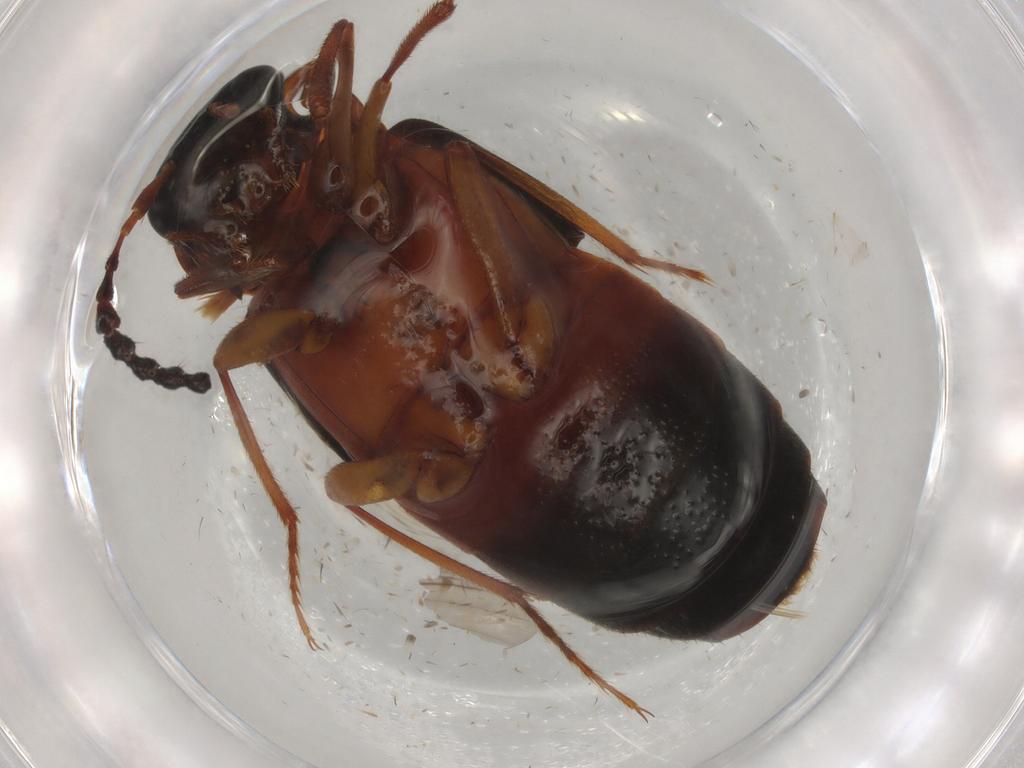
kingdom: Animalia
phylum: Arthropoda
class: Insecta
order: Coleoptera
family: Staphylinidae
